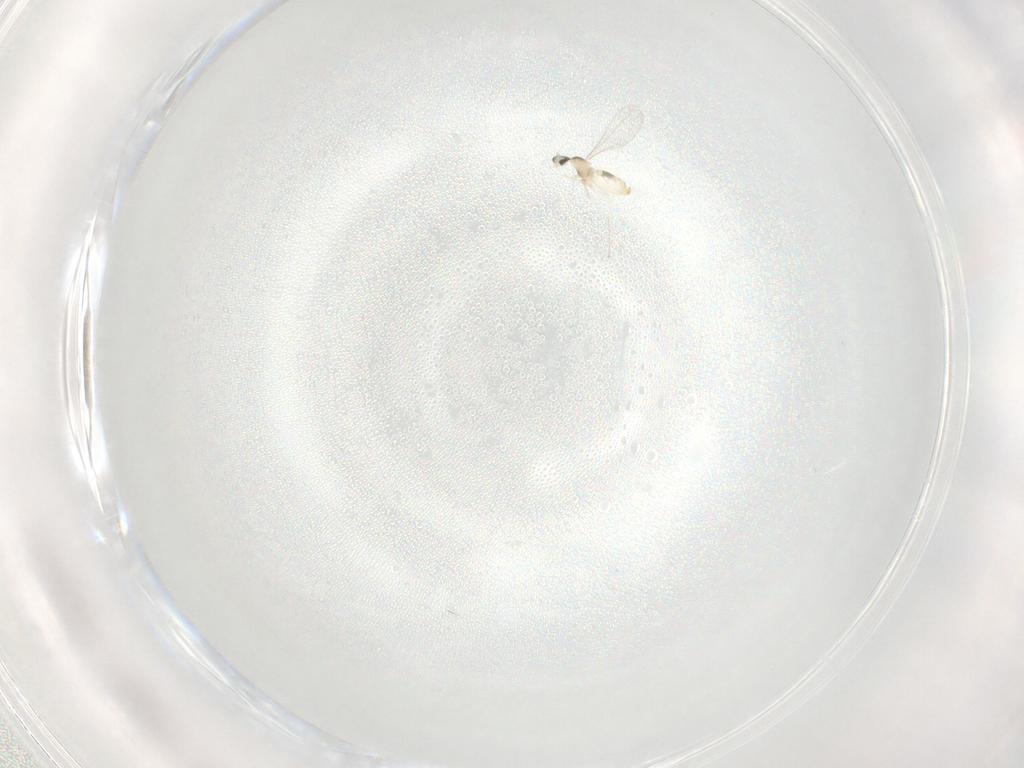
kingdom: Animalia
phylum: Arthropoda
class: Insecta
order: Diptera
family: Cecidomyiidae
